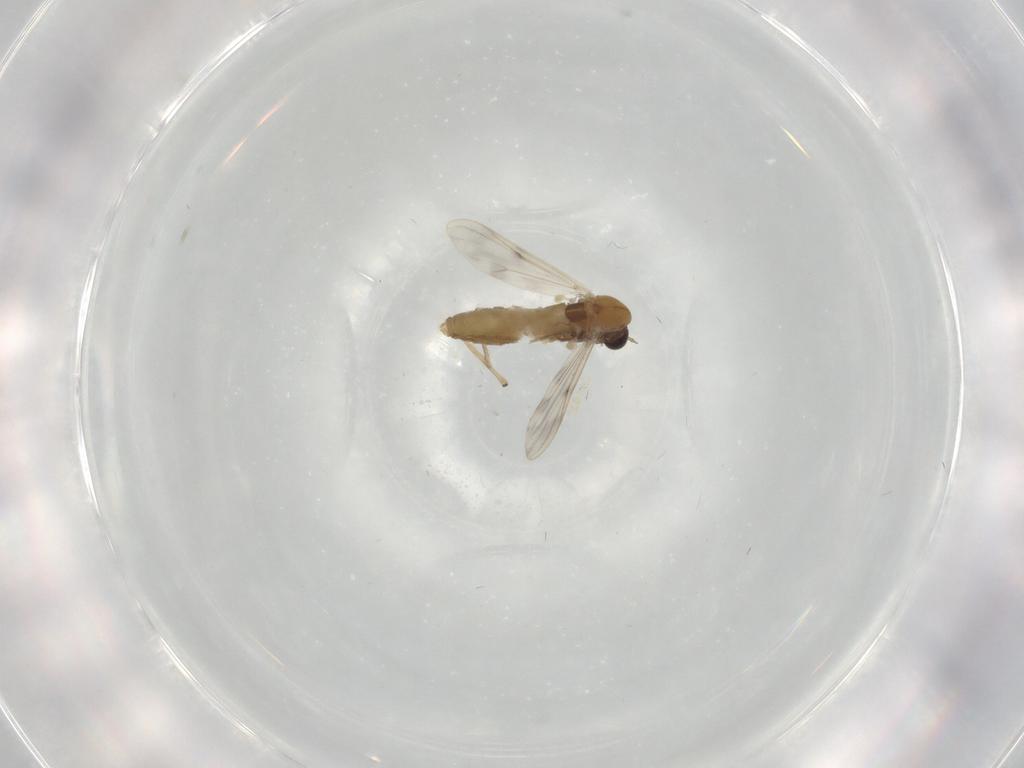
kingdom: Animalia
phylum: Arthropoda
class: Insecta
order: Diptera
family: Chironomidae
